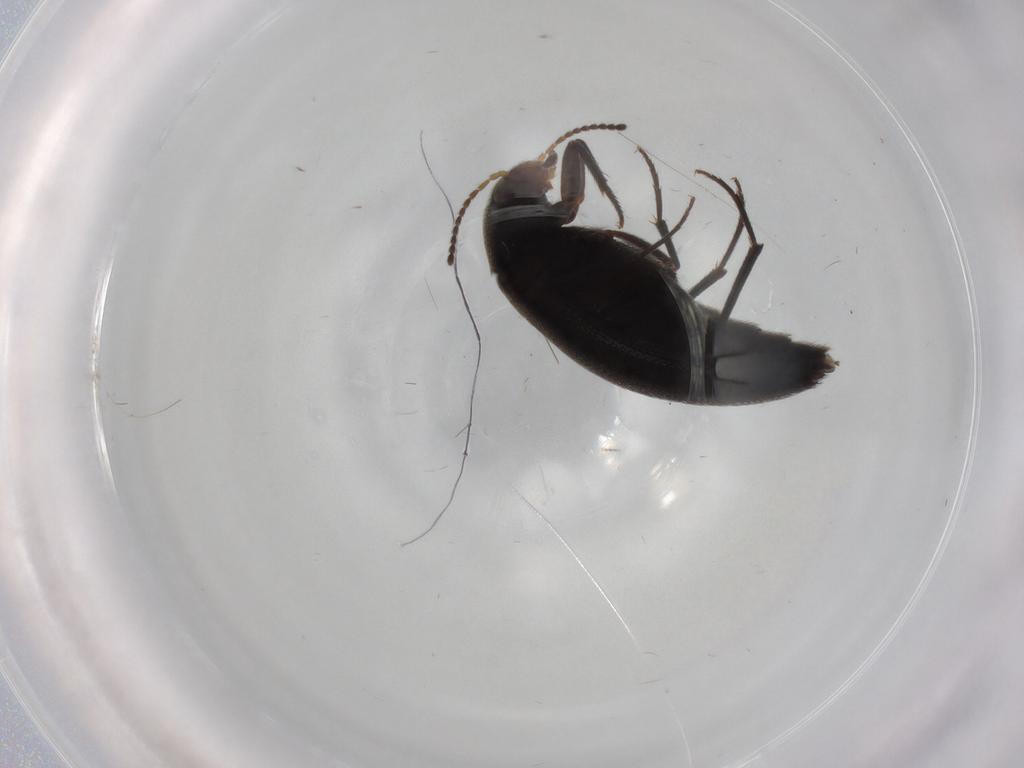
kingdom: Animalia
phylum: Arthropoda
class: Insecta
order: Coleoptera
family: Melandryidae
